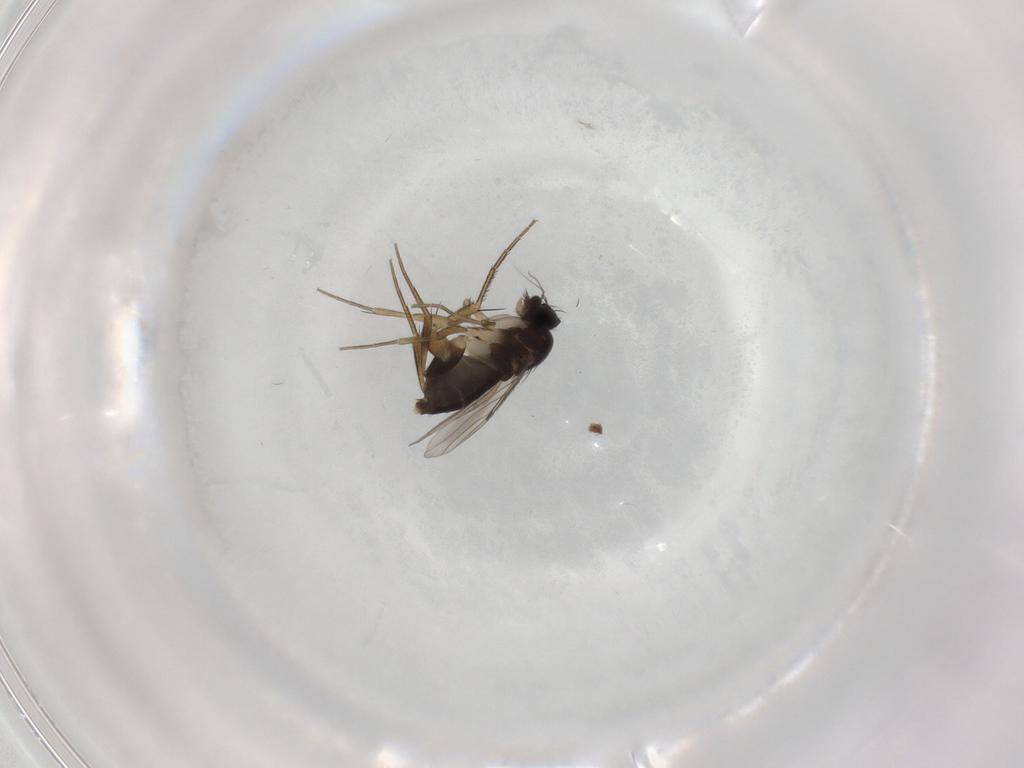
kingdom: Animalia
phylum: Arthropoda
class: Insecta
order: Diptera
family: Phoridae
